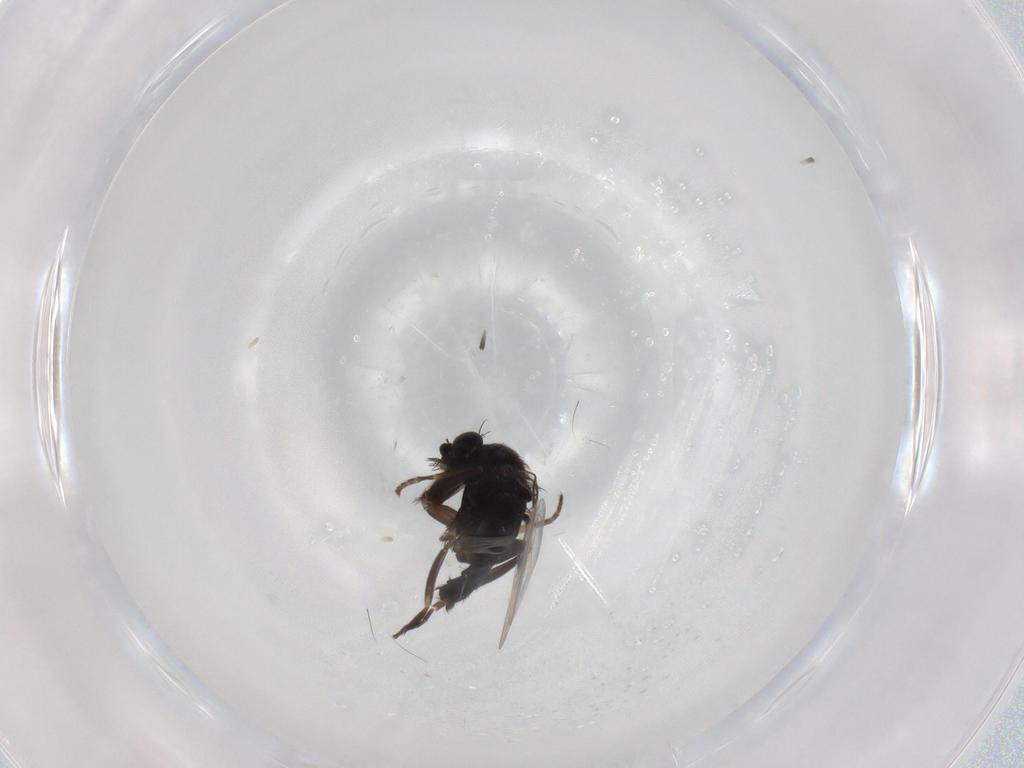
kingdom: Animalia
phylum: Arthropoda
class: Insecta
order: Diptera
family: Phoridae
